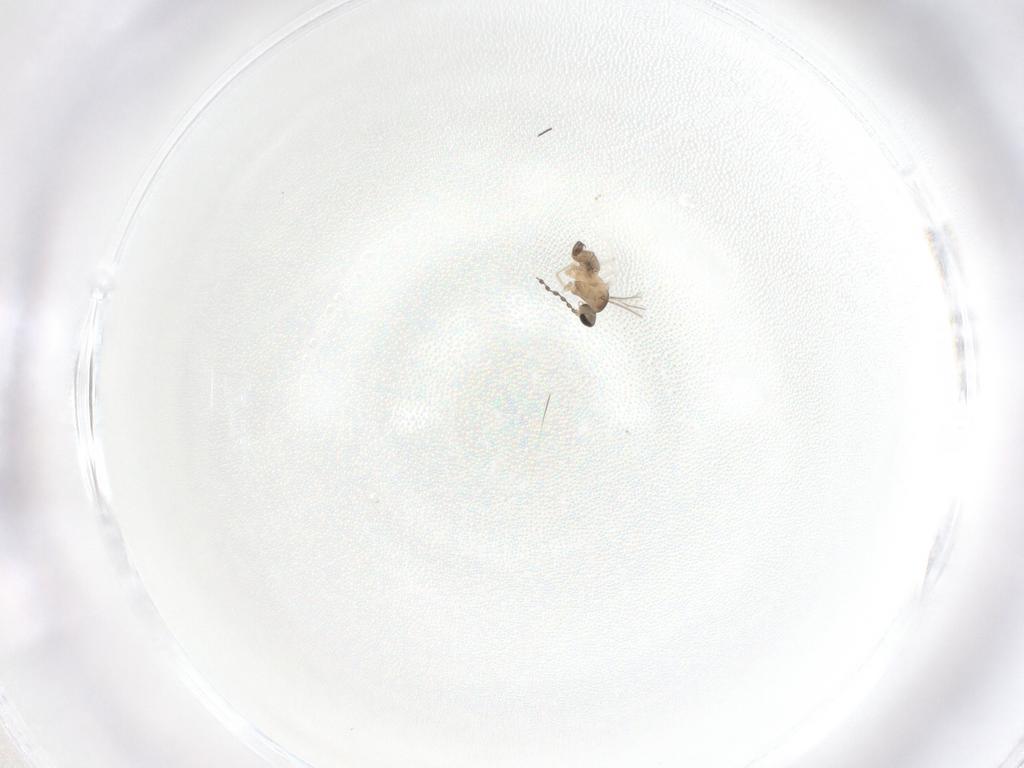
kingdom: Animalia
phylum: Arthropoda
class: Insecta
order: Diptera
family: Cecidomyiidae
